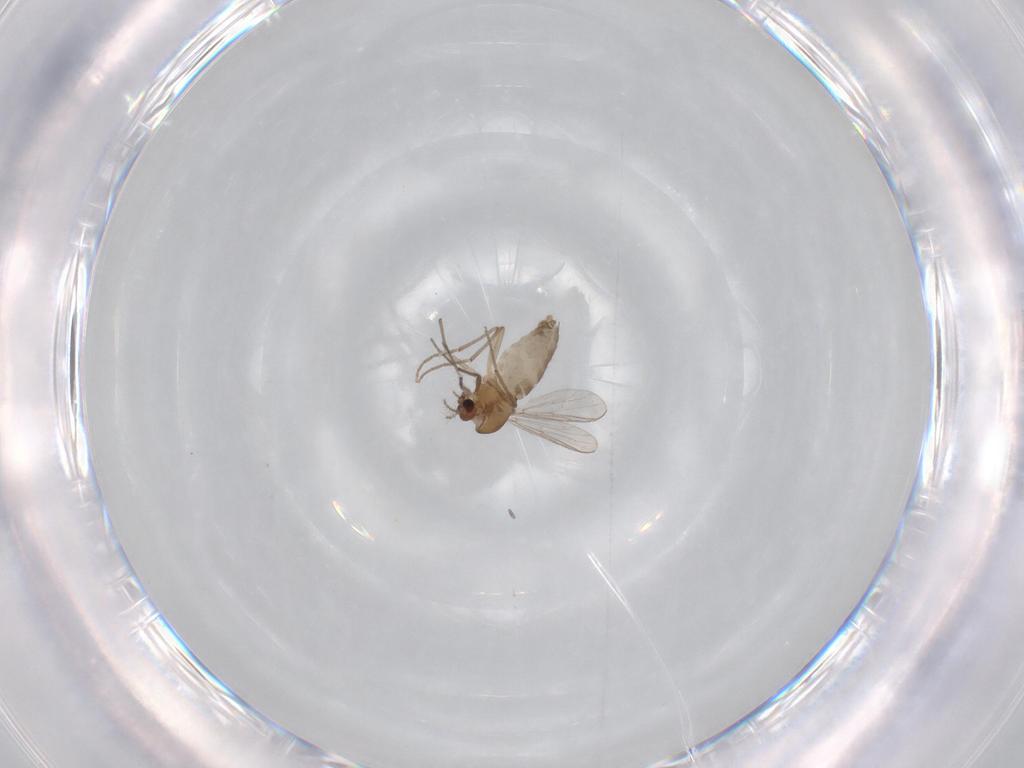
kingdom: Animalia
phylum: Arthropoda
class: Insecta
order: Diptera
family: Chironomidae
